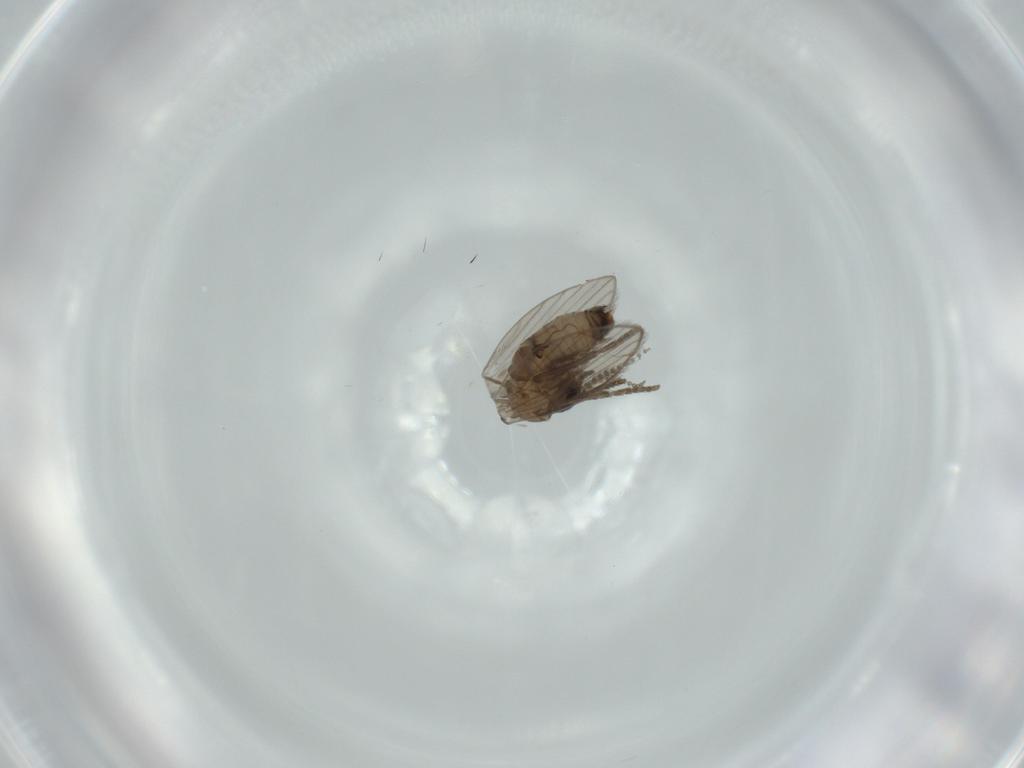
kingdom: Animalia
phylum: Arthropoda
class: Insecta
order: Diptera
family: Psychodidae
